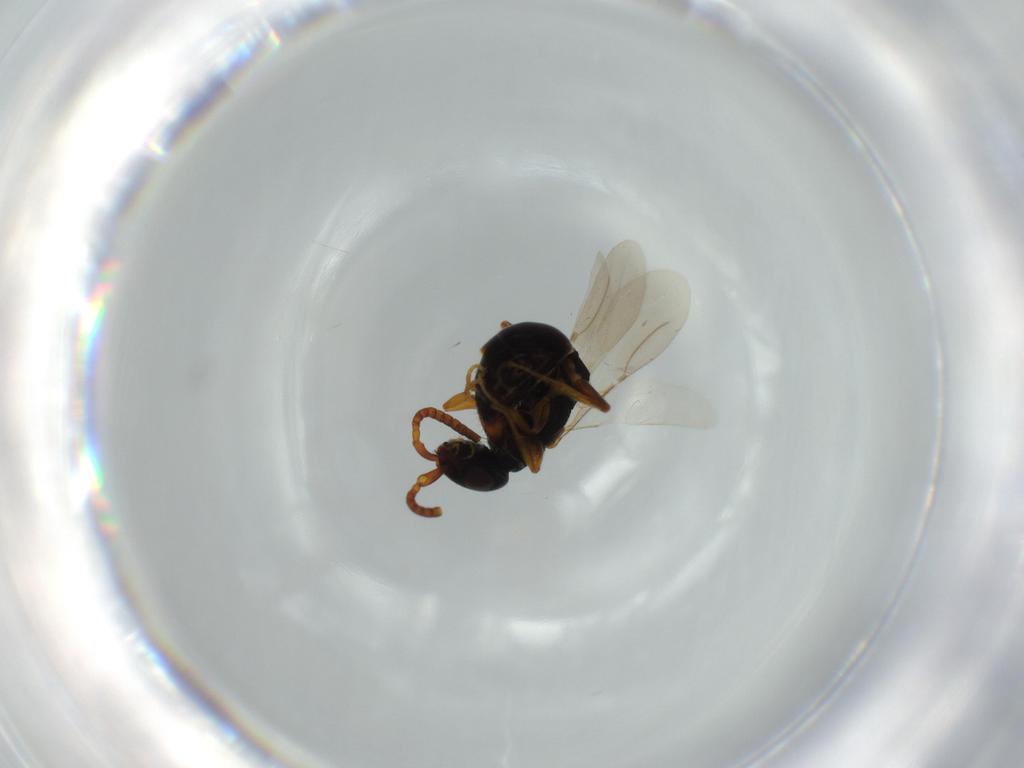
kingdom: Animalia
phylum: Arthropoda
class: Insecta
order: Hymenoptera
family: Bethylidae
